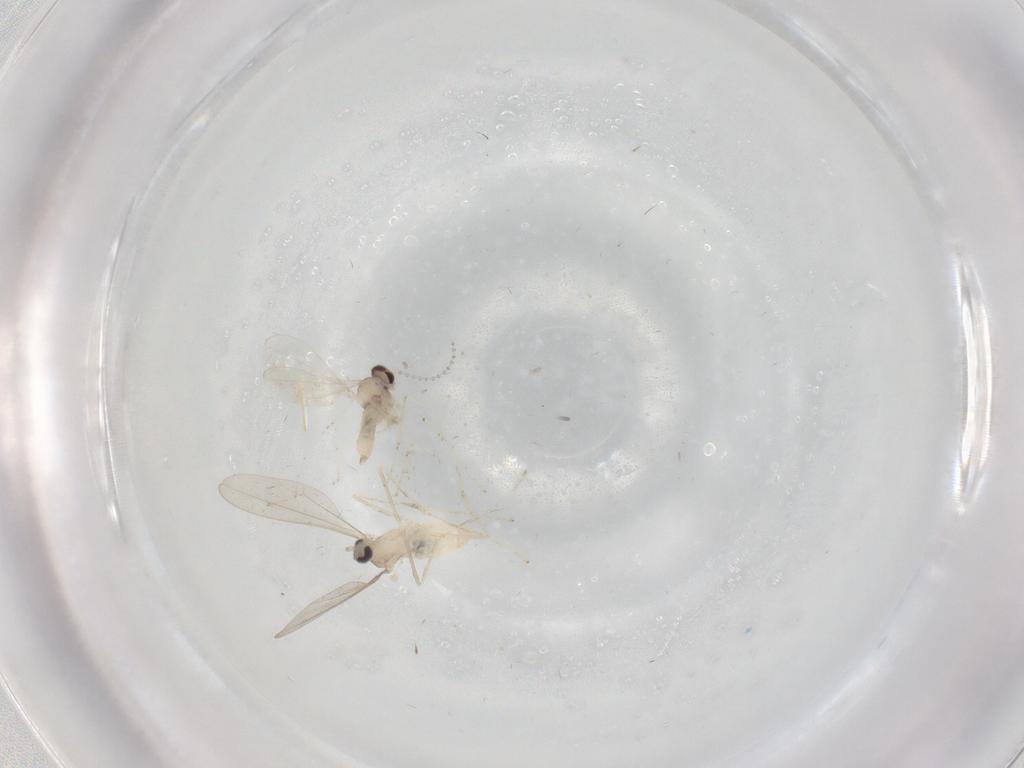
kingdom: Animalia
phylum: Arthropoda
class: Insecta
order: Diptera
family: Cecidomyiidae
